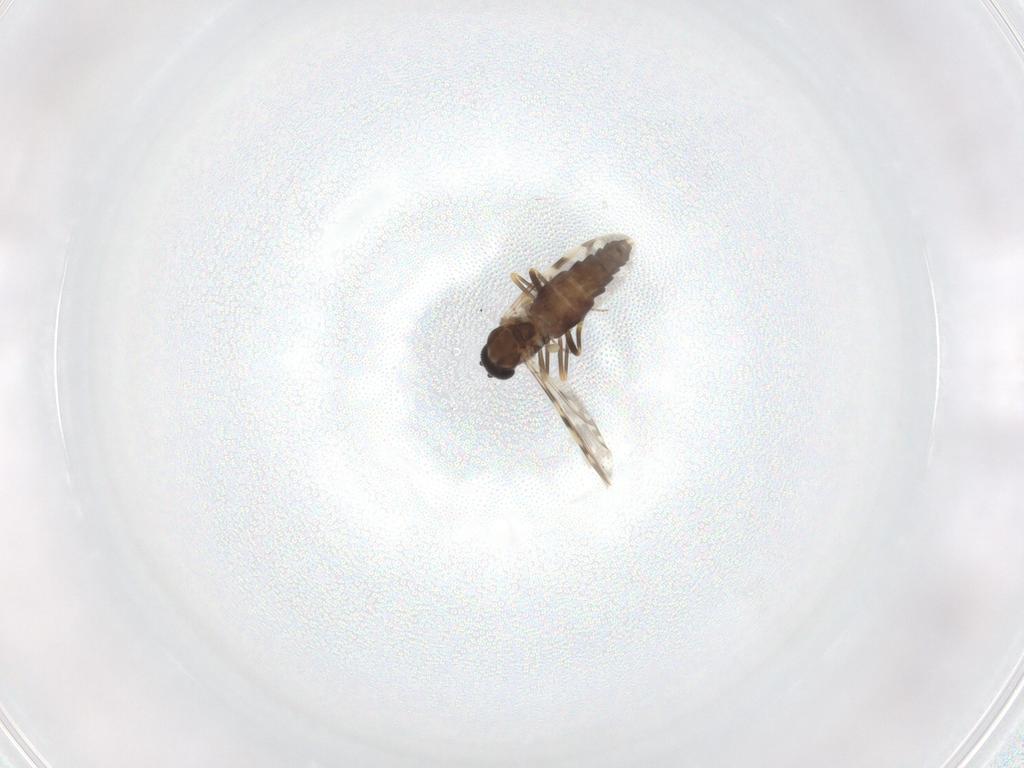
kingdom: Animalia
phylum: Arthropoda
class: Insecta
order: Diptera
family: Ceratopogonidae
